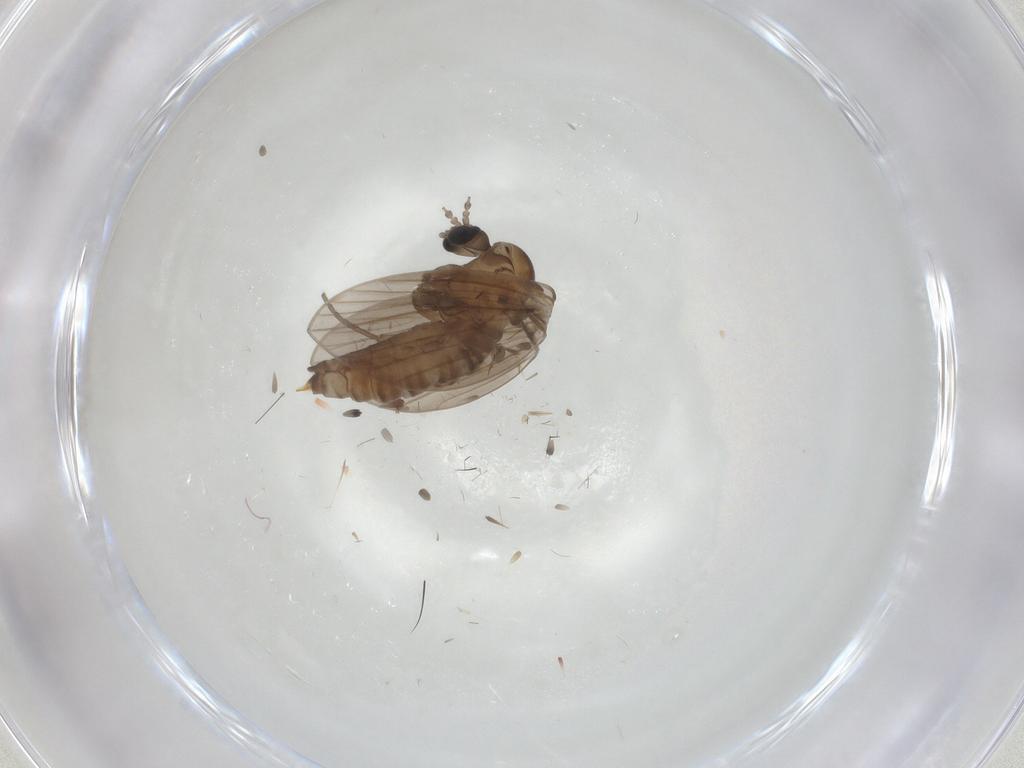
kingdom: Animalia
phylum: Arthropoda
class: Insecta
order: Diptera
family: Psychodidae
